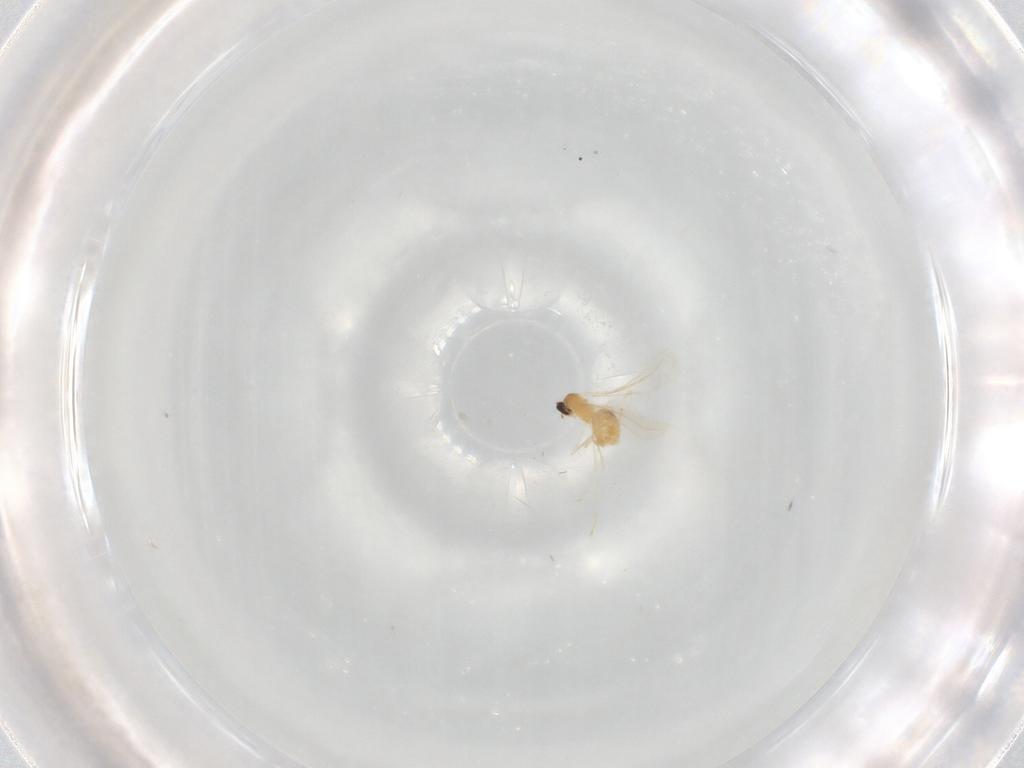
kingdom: Animalia
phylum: Arthropoda
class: Insecta
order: Diptera
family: Cecidomyiidae
